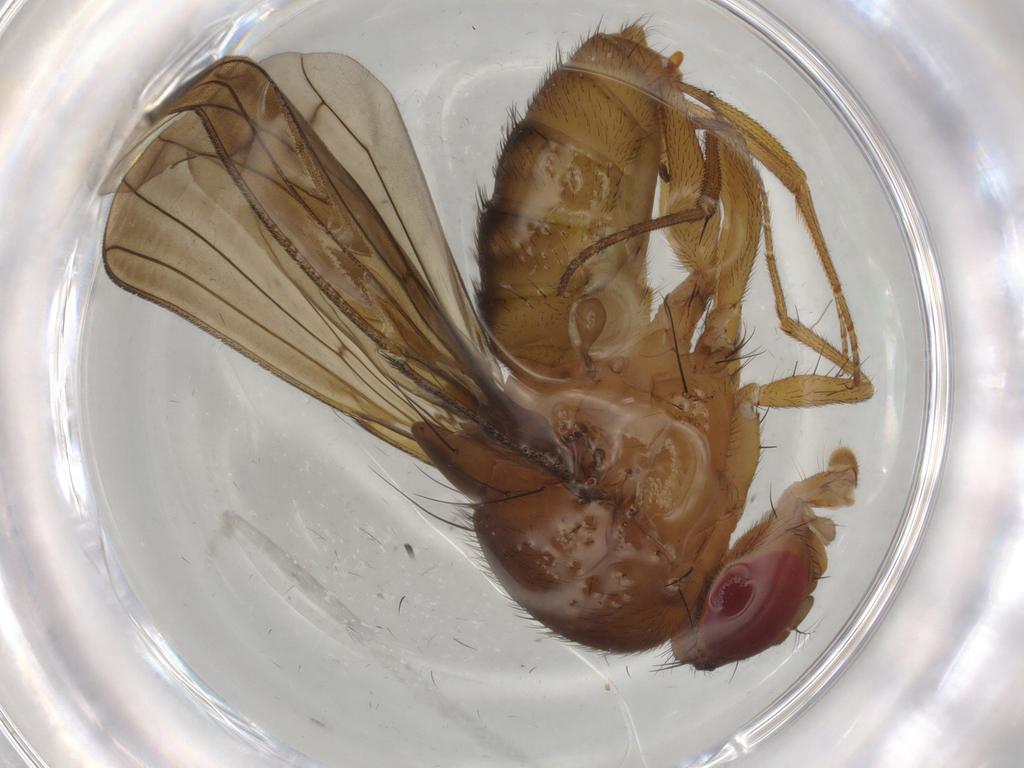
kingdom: Animalia
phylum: Arthropoda
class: Insecta
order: Diptera
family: Drosophilidae
